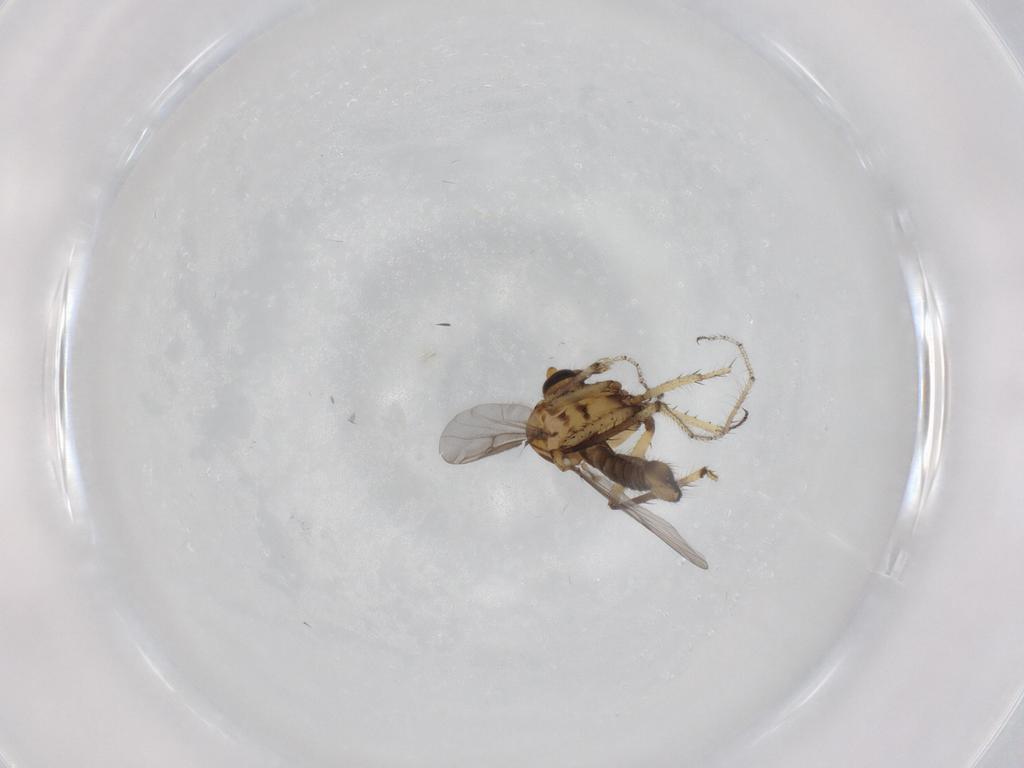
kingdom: Animalia
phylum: Arthropoda
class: Insecta
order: Diptera
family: Ceratopogonidae
